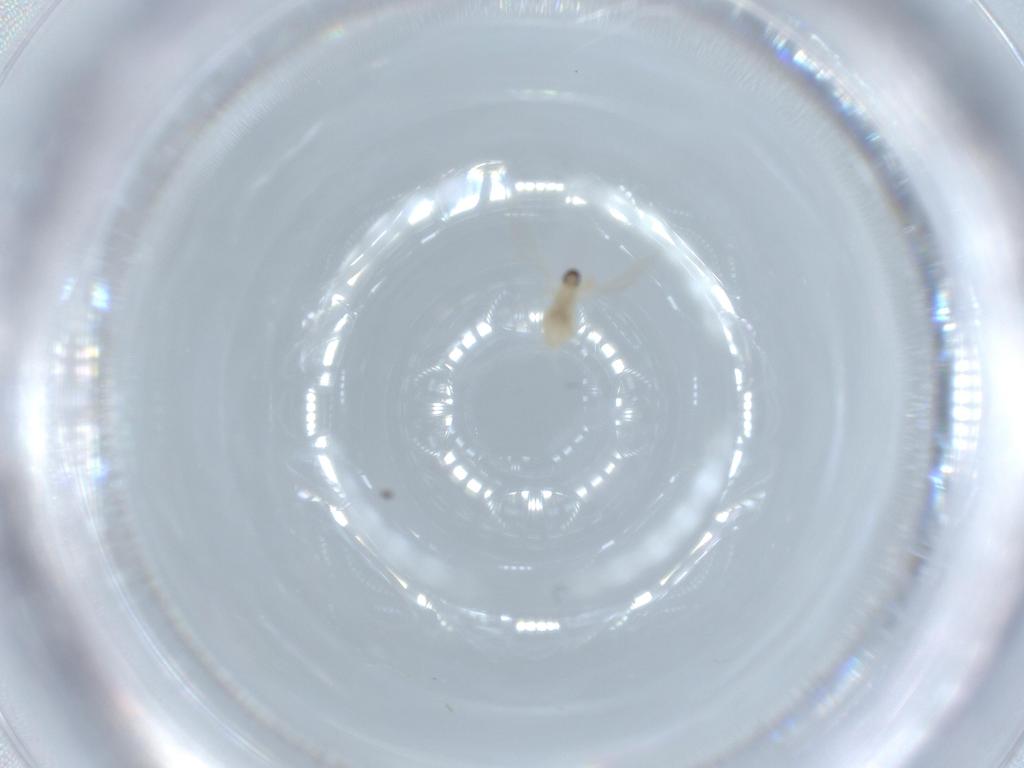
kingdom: Animalia
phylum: Arthropoda
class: Insecta
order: Diptera
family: Cecidomyiidae
